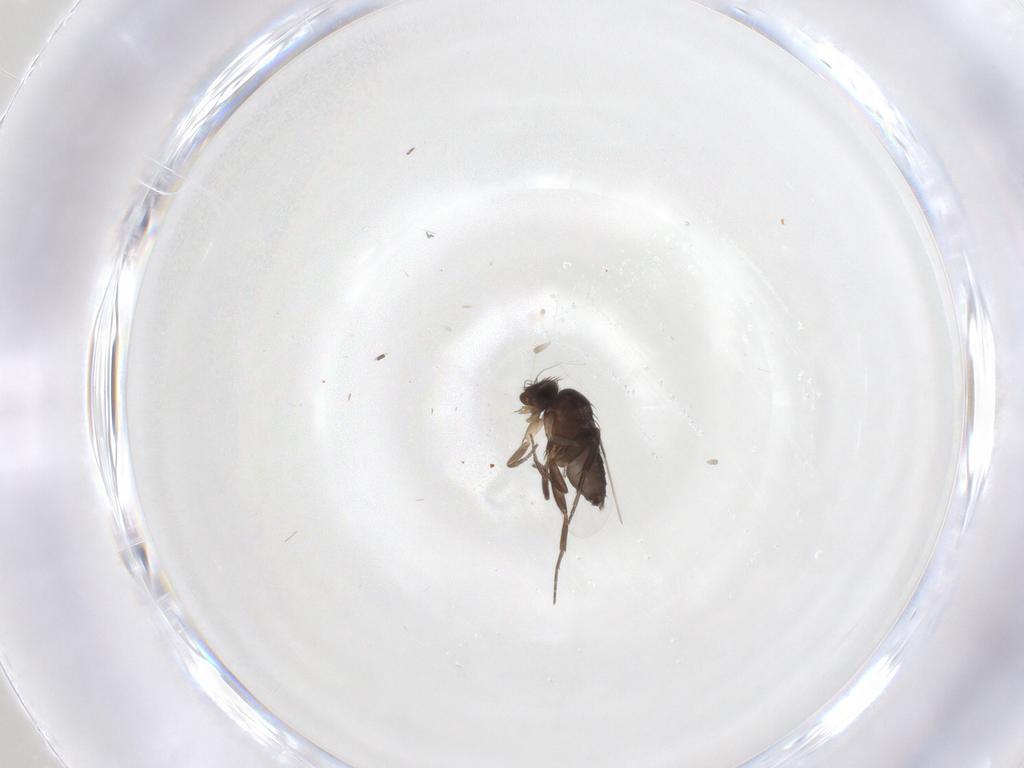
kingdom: Animalia
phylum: Arthropoda
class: Insecta
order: Diptera
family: Phoridae
